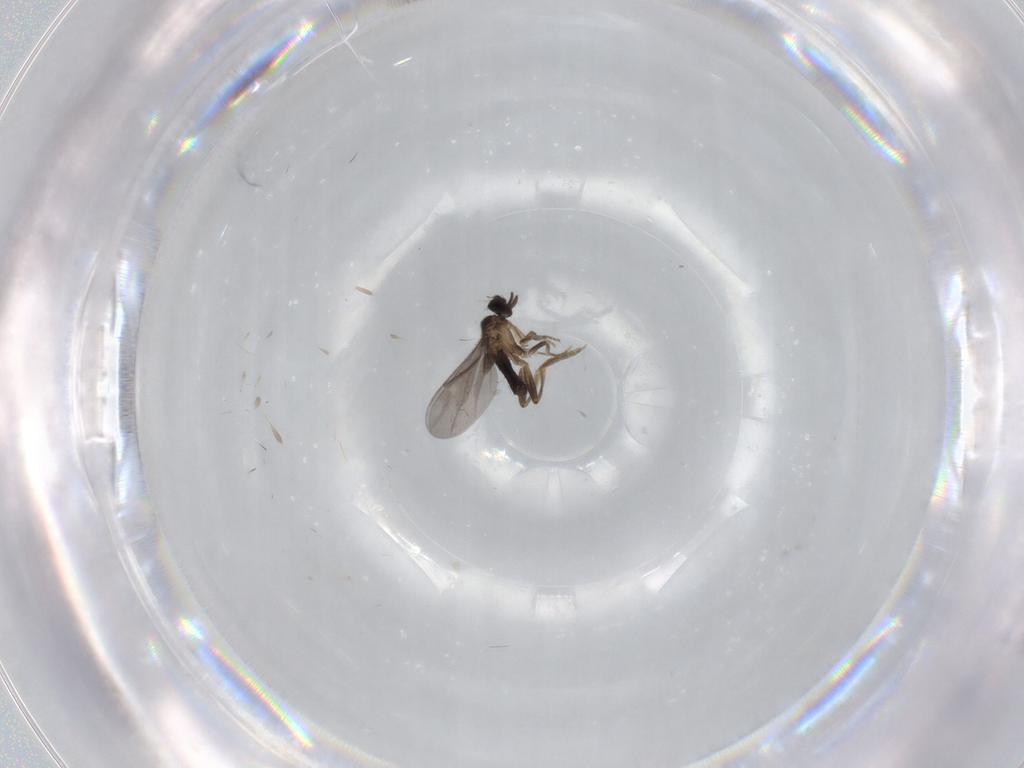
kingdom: Animalia
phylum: Arthropoda
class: Insecta
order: Diptera
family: Chironomidae
